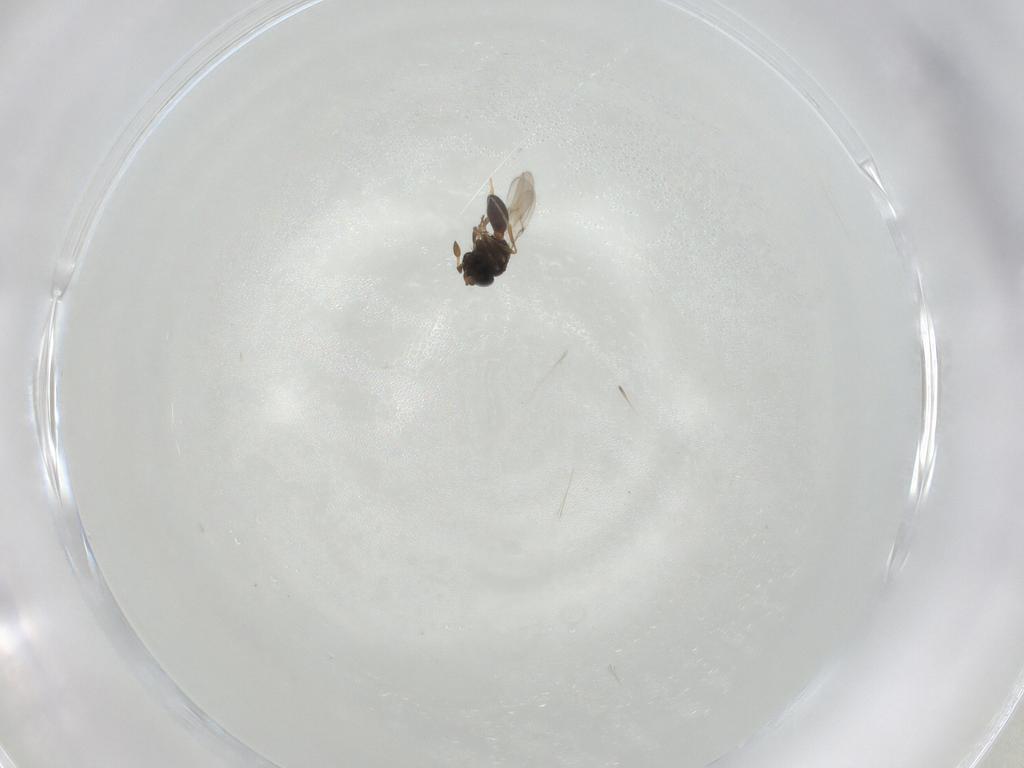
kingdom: Animalia
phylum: Arthropoda
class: Insecta
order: Hymenoptera
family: Scelionidae
